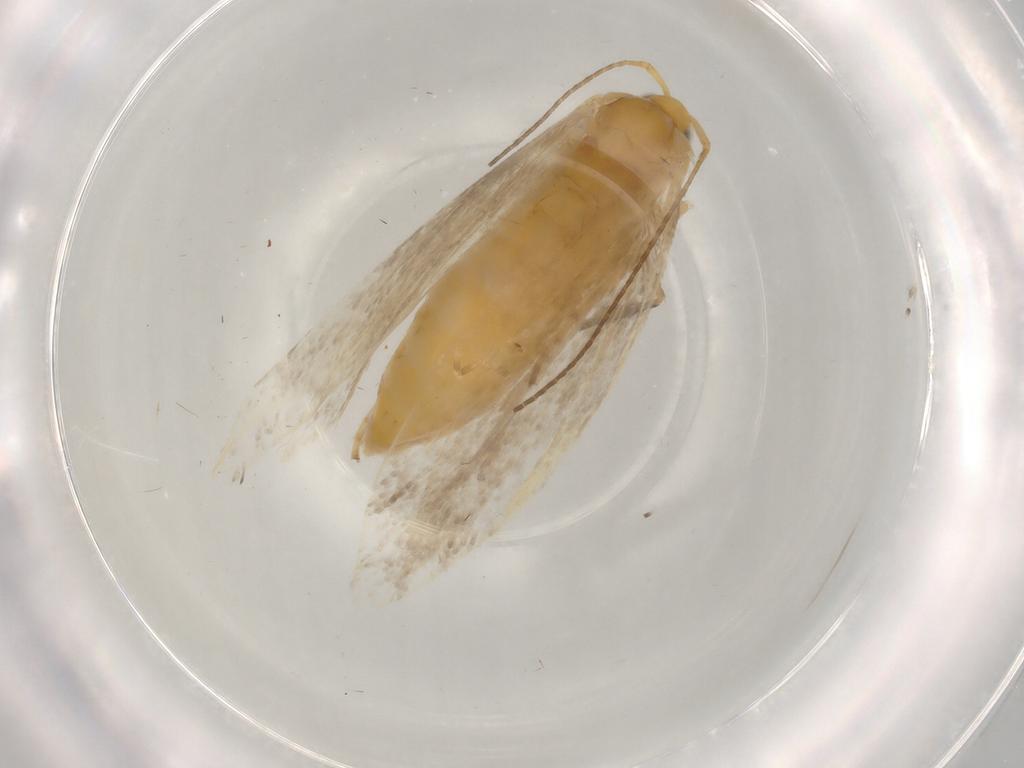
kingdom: Animalia
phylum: Arthropoda
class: Insecta
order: Lepidoptera
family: Argyresthiidae
